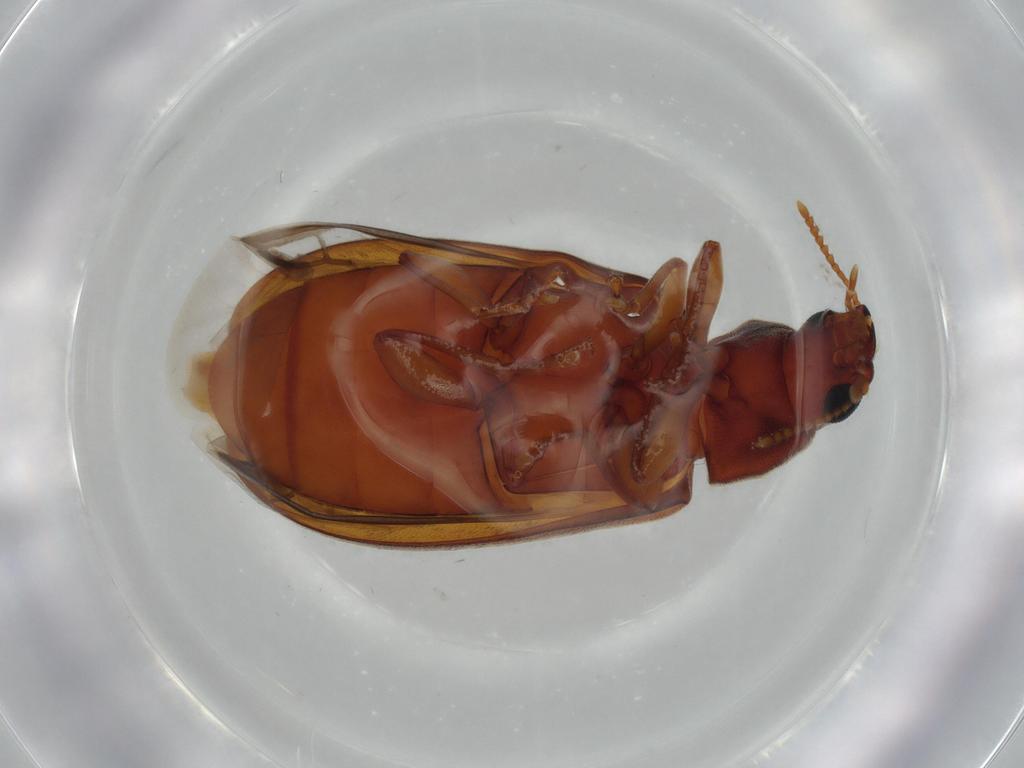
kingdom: Animalia
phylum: Arthropoda
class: Insecta
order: Coleoptera
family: Mycteridae
